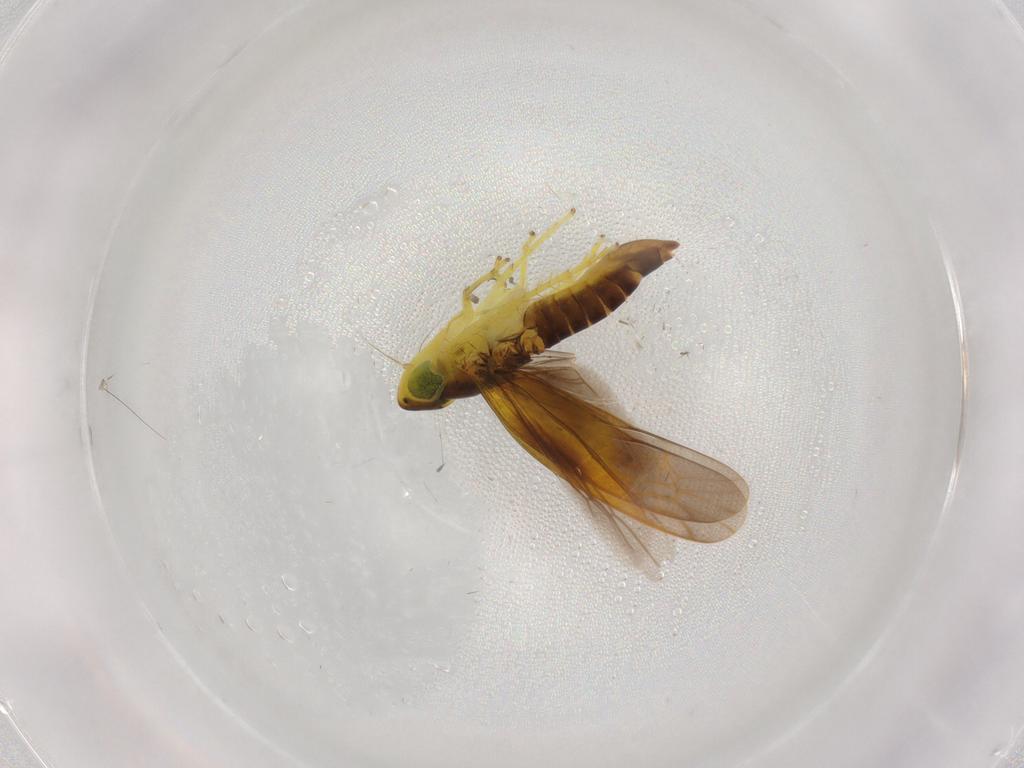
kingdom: Animalia
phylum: Arthropoda
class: Insecta
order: Hemiptera
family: Cicadellidae
